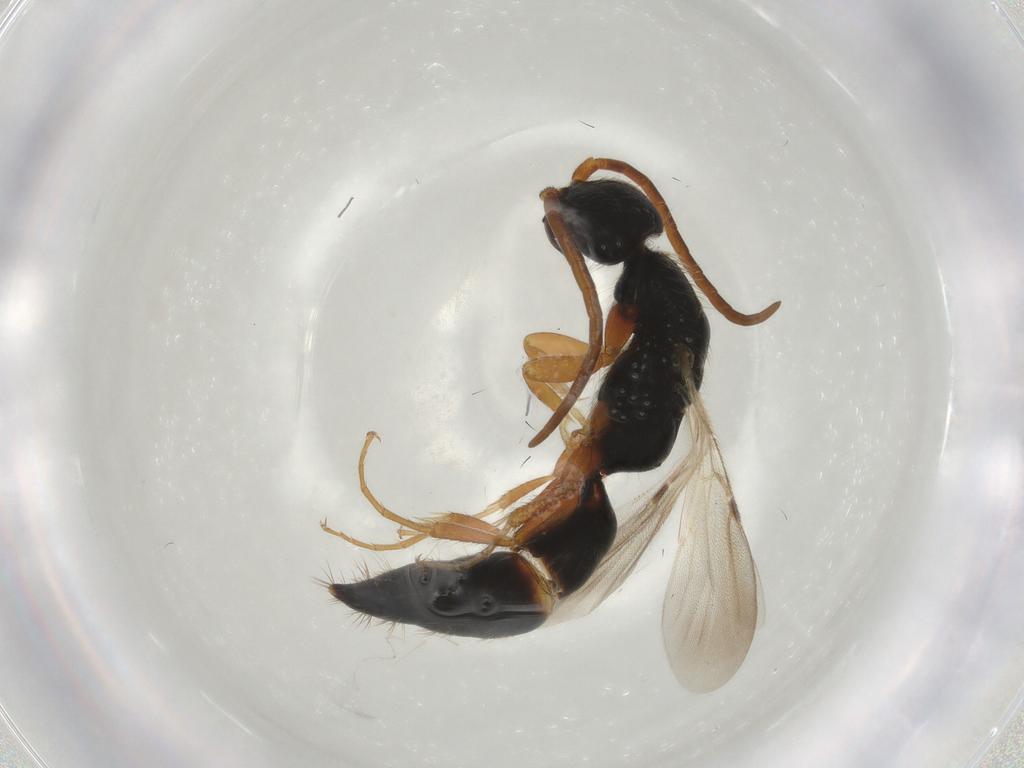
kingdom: Animalia
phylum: Arthropoda
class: Insecta
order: Hymenoptera
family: Bethylidae
